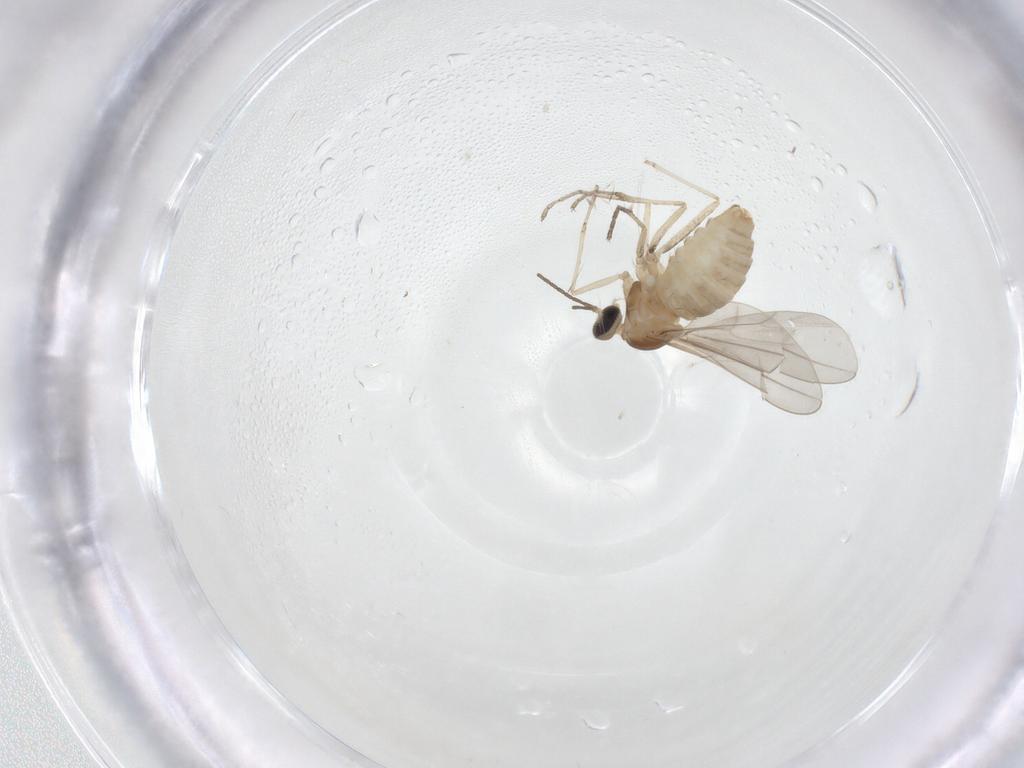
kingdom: Animalia
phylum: Arthropoda
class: Insecta
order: Diptera
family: Cecidomyiidae
